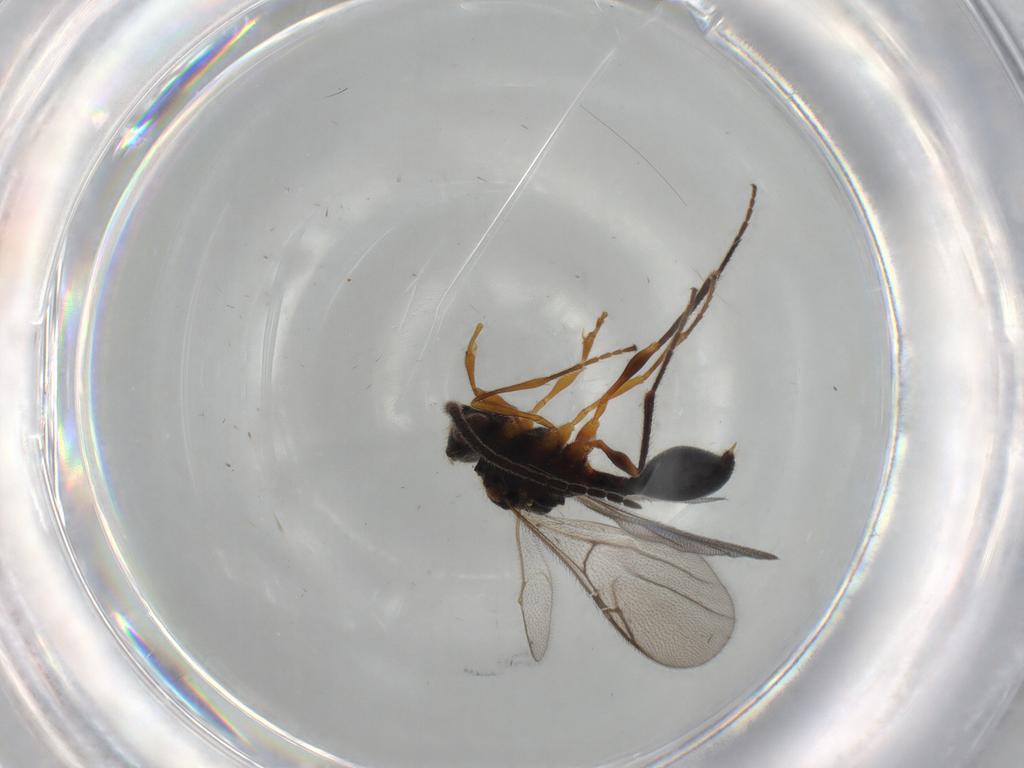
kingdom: Animalia
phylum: Arthropoda
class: Insecta
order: Hymenoptera
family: Diapriidae
